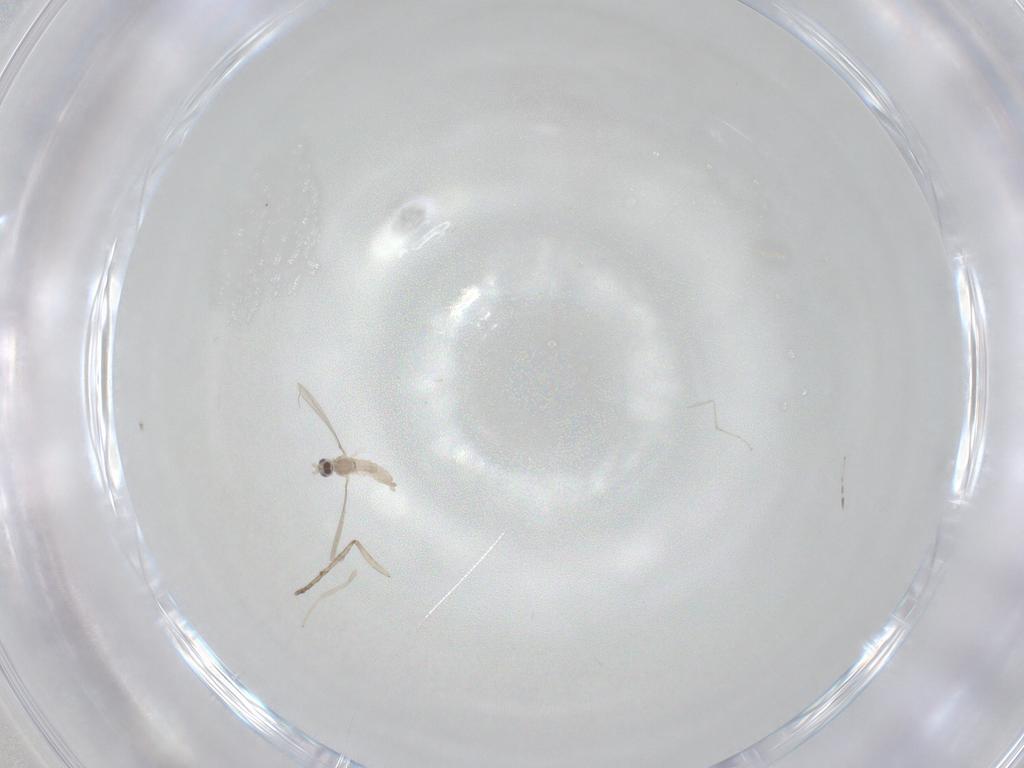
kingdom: Animalia
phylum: Arthropoda
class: Insecta
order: Diptera
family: Cecidomyiidae
